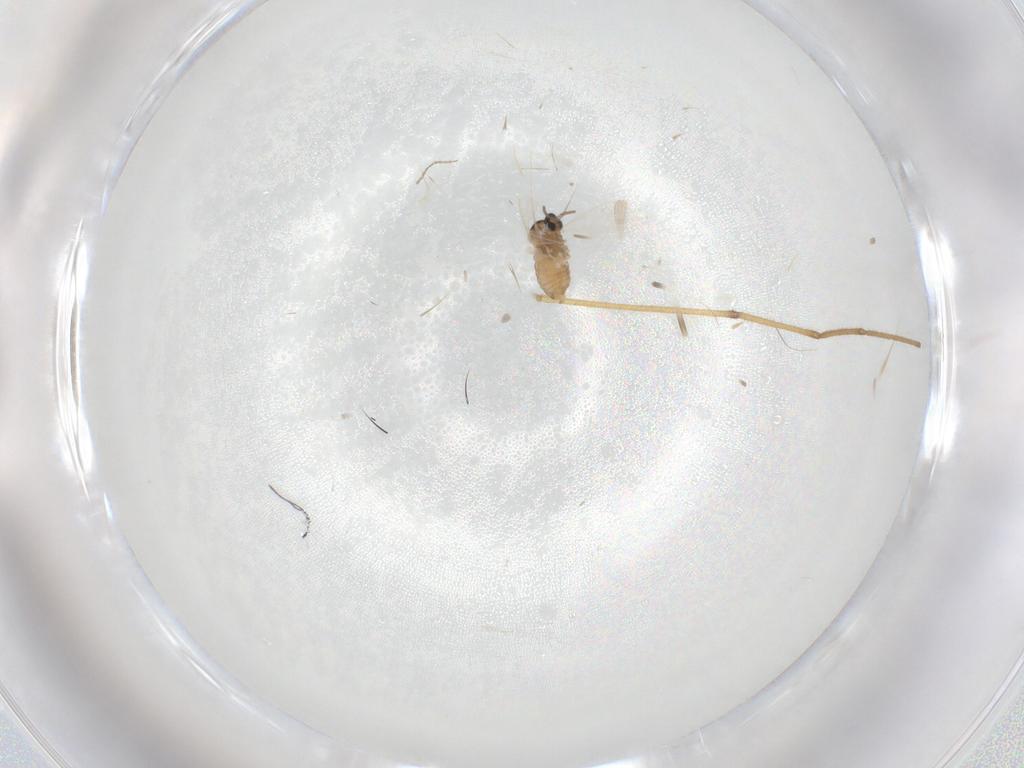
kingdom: Animalia
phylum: Arthropoda
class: Insecta
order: Diptera
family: Cecidomyiidae
